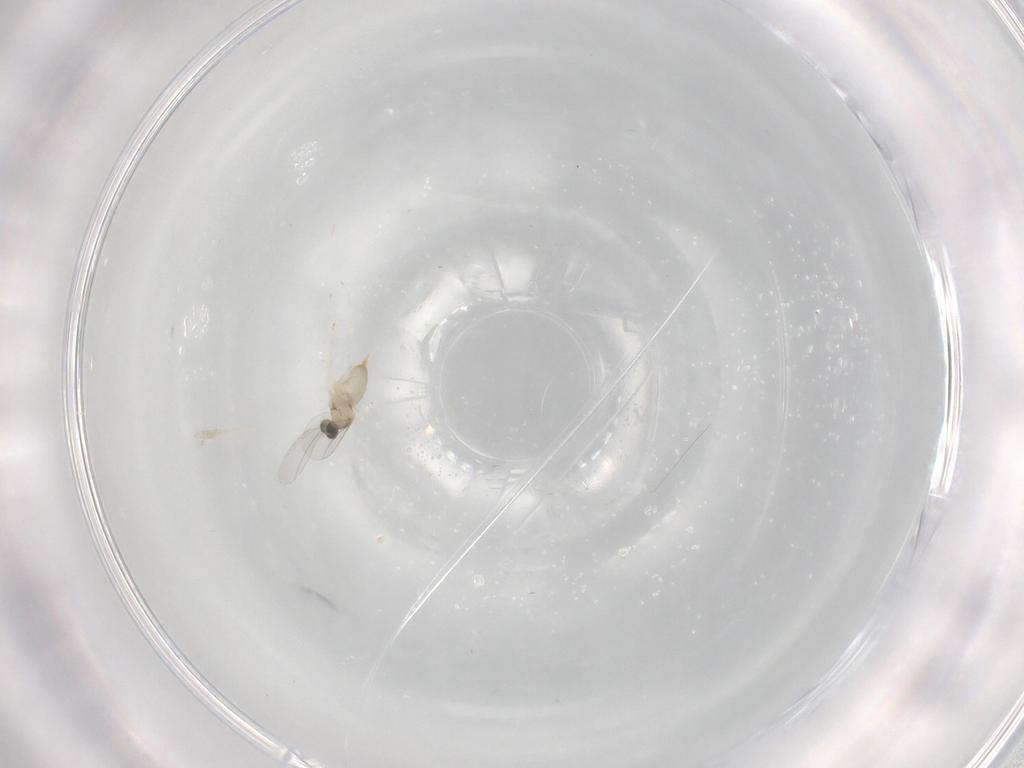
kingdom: Animalia
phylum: Arthropoda
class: Insecta
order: Diptera
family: Cecidomyiidae
